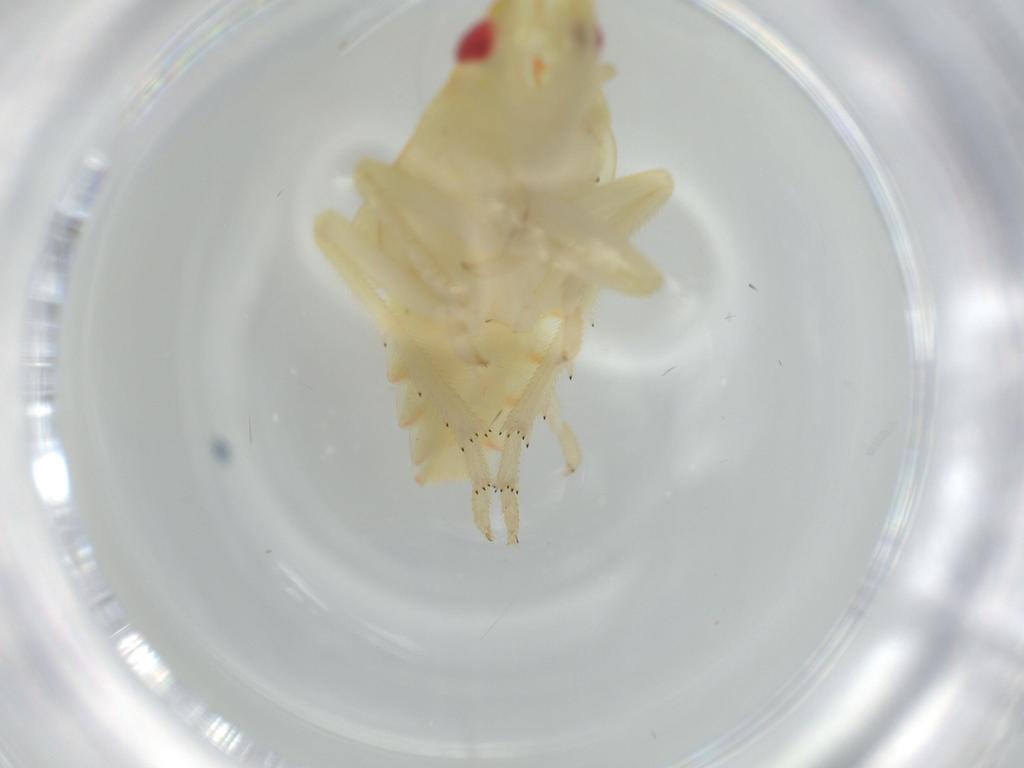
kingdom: Animalia
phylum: Arthropoda
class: Insecta
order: Hemiptera
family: Tropiduchidae
